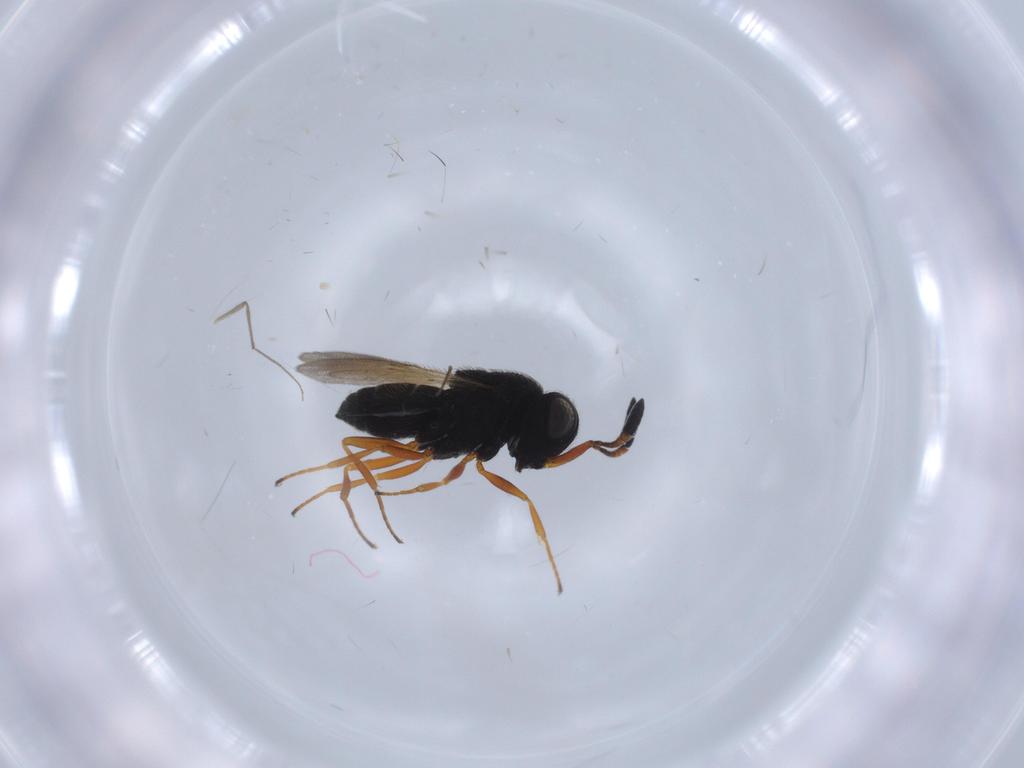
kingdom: Animalia
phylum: Arthropoda
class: Insecta
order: Hymenoptera
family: Scelionidae
